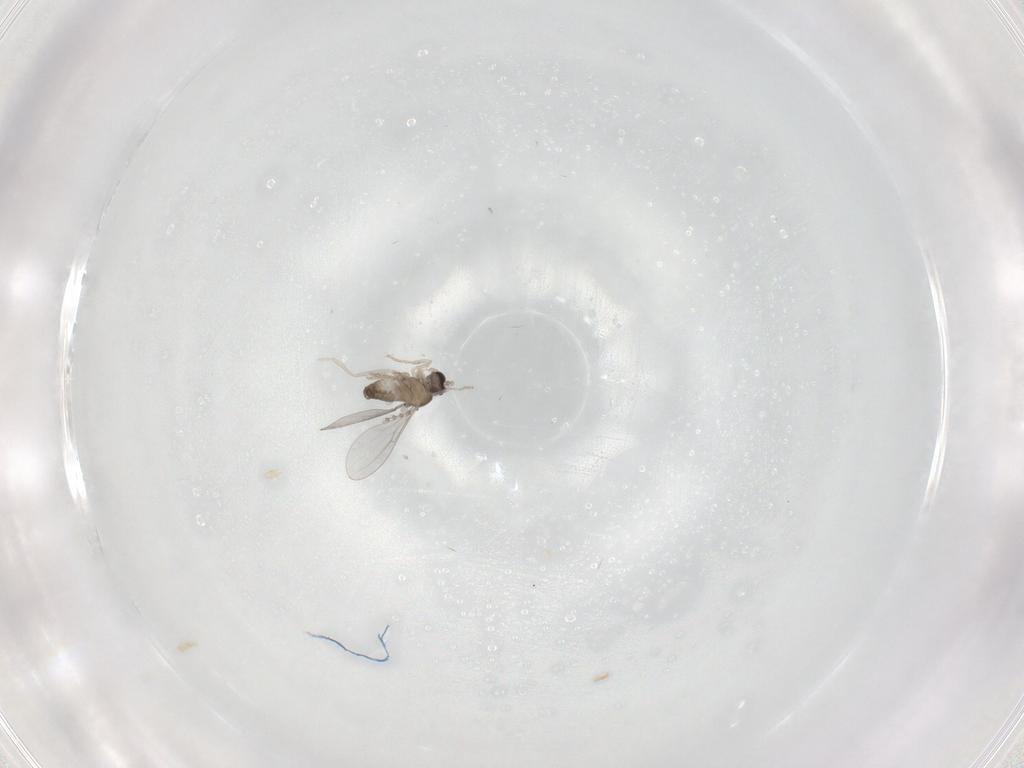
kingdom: Animalia
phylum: Arthropoda
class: Insecta
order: Diptera
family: Cecidomyiidae
